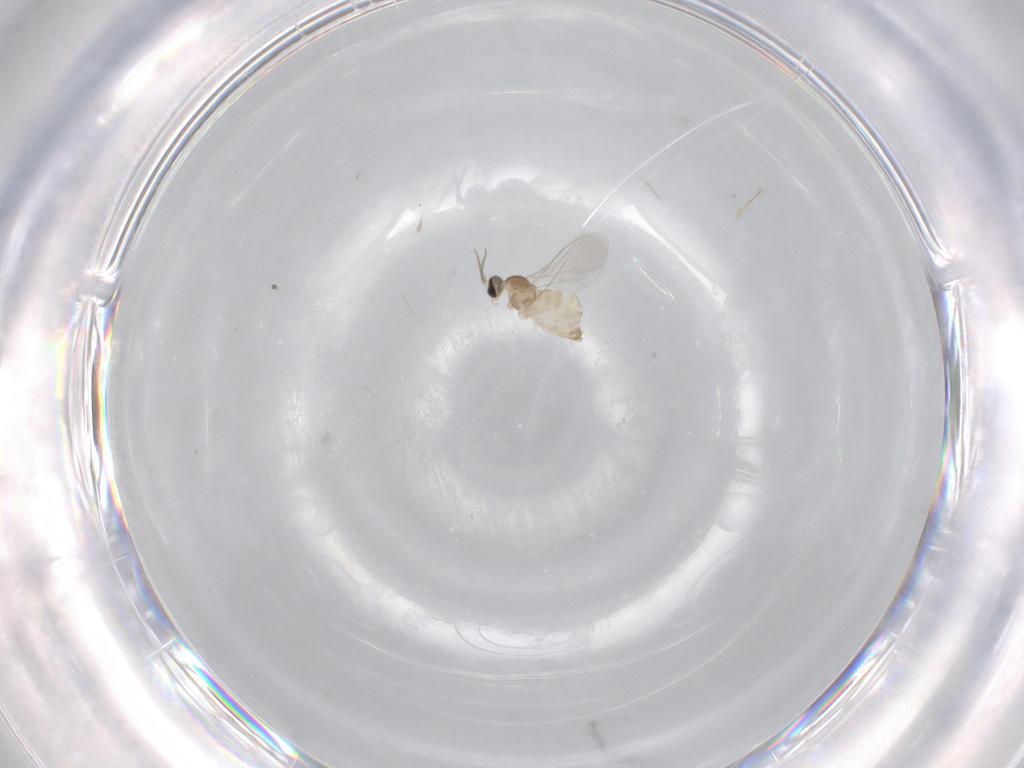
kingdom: Animalia
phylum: Arthropoda
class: Insecta
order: Diptera
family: Cecidomyiidae
